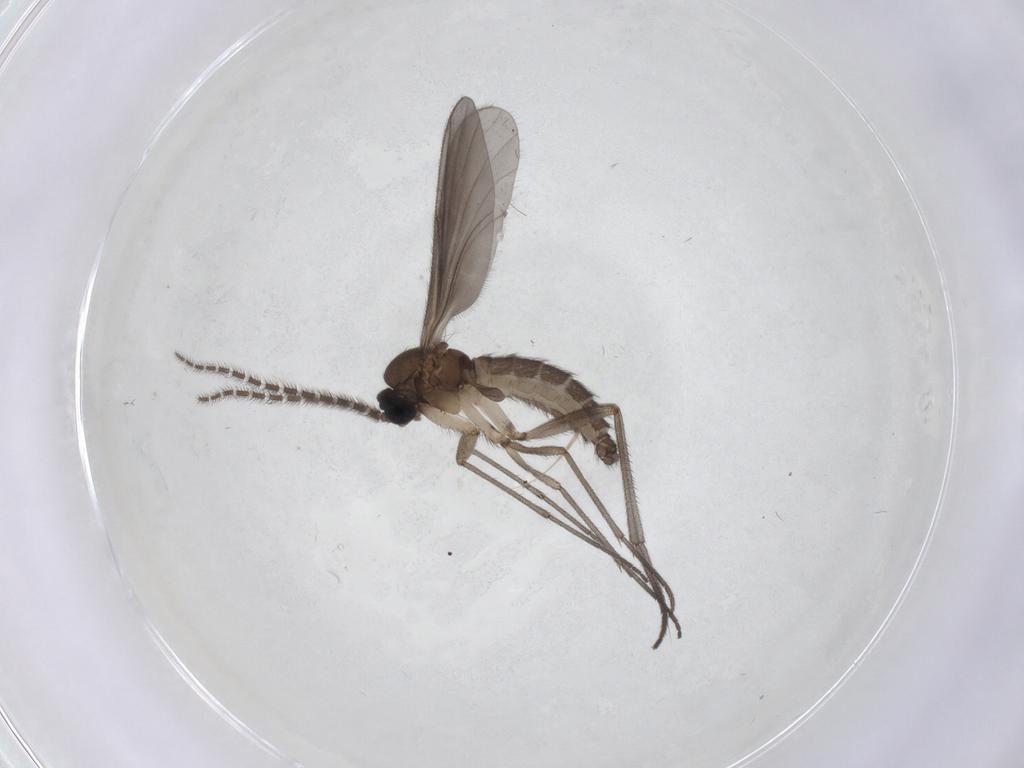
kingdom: Animalia
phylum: Arthropoda
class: Insecta
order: Diptera
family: Sciaridae
